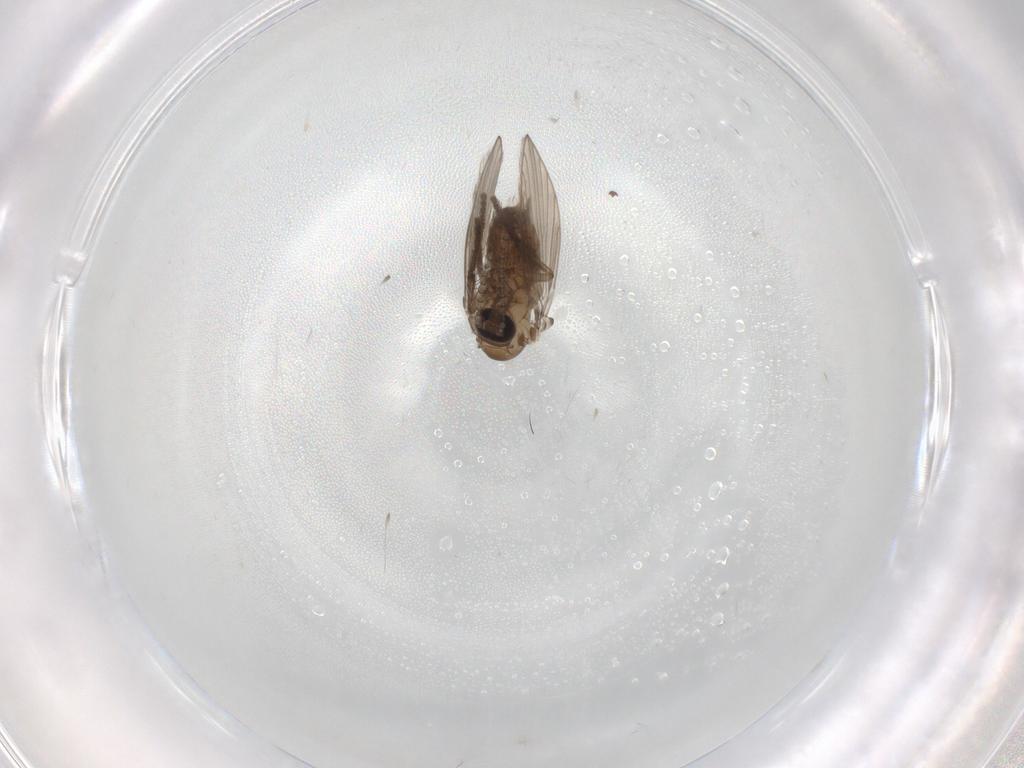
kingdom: Animalia
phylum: Arthropoda
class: Insecta
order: Diptera
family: Psychodidae
